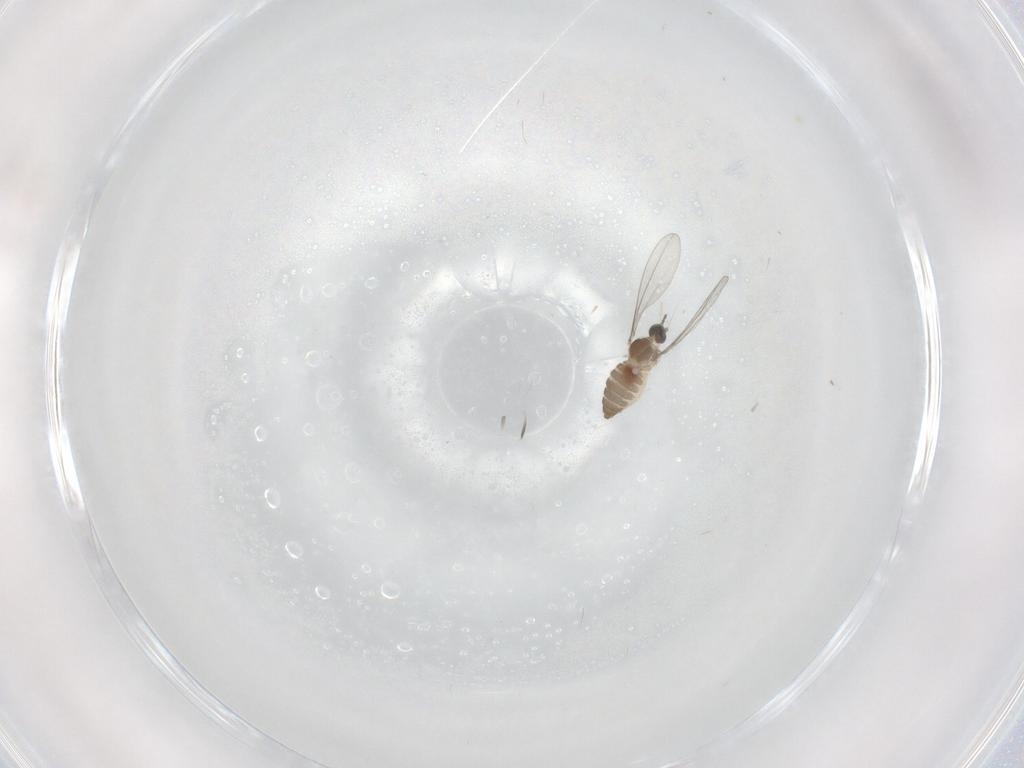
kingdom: Animalia
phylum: Arthropoda
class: Insecta
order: Diptera
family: Cecidomyiidae
